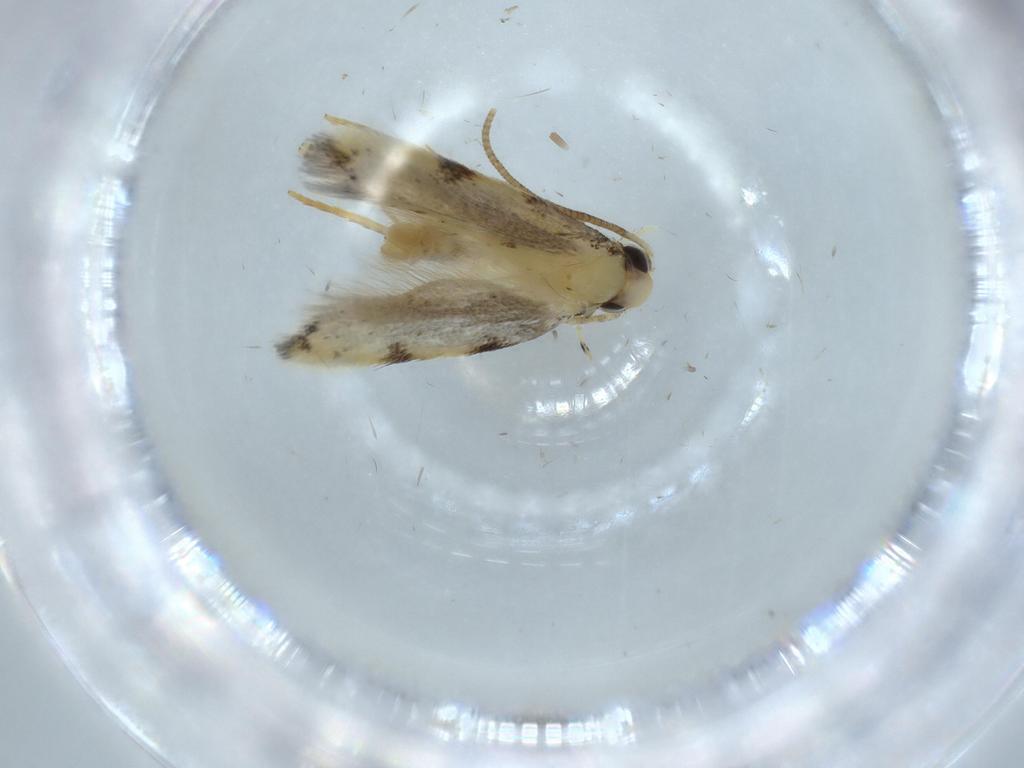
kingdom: Animalia
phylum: Arthropoda
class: Insecta
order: Lepidoptera
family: Autostichidae
